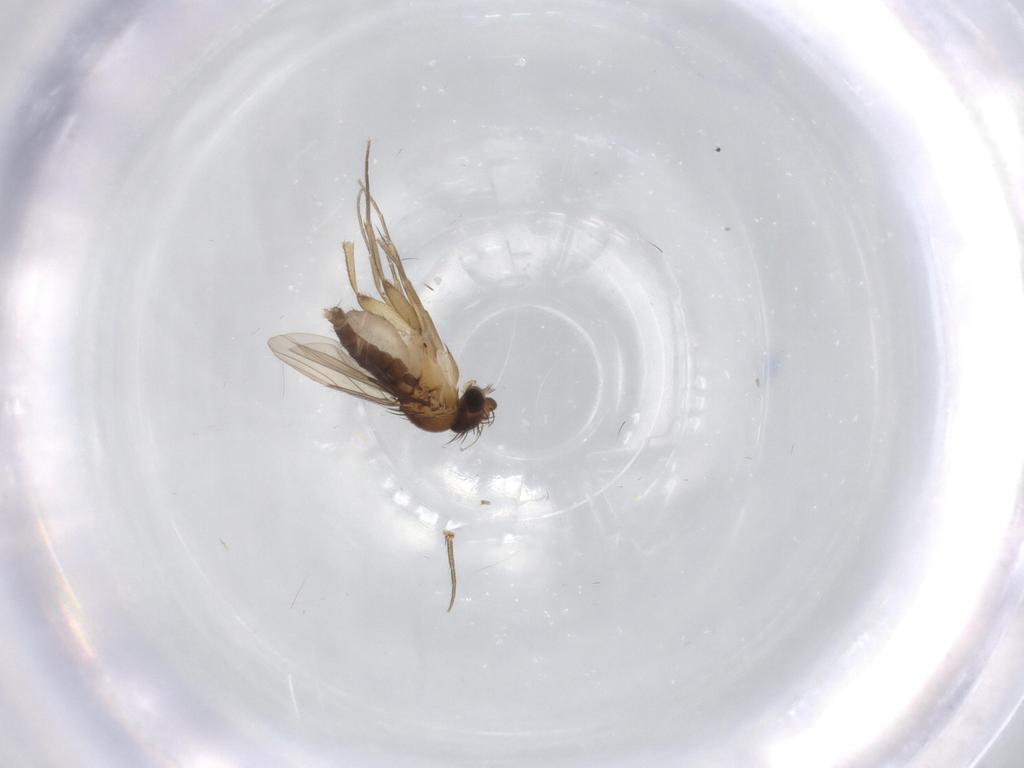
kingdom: Animalia
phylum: Arthropoda
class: Insecta
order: Diptera
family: Phoridae
